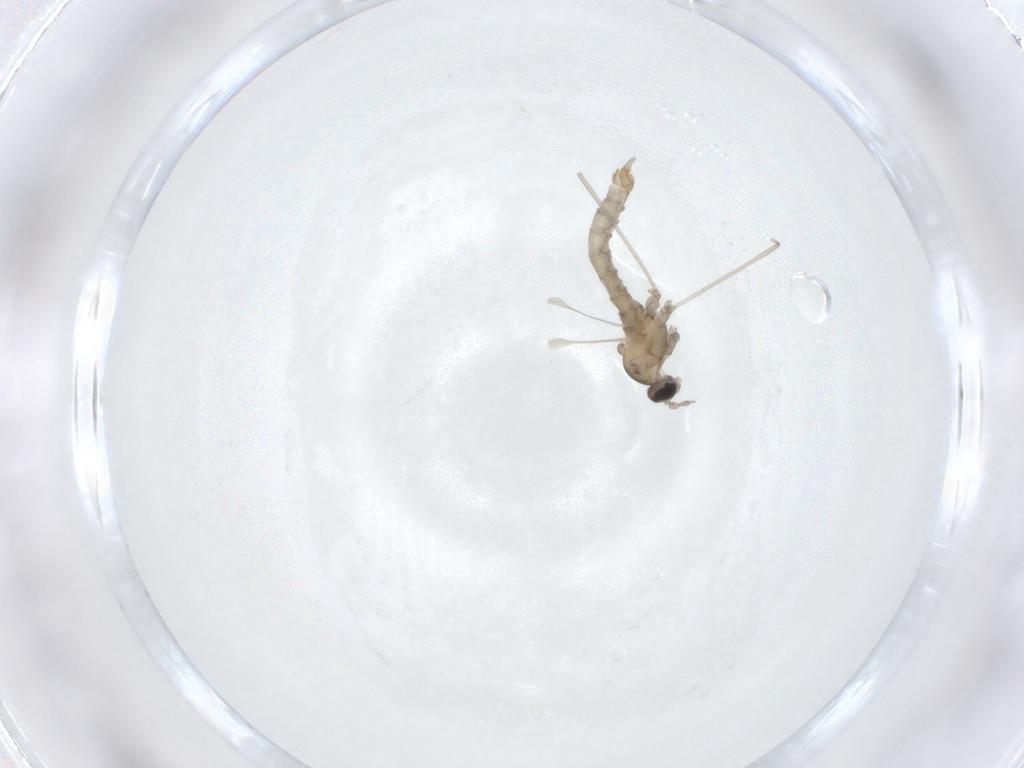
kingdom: Animalia
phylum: Arthropoda
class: Insecta
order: Diptera
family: Cecidomyiidae
